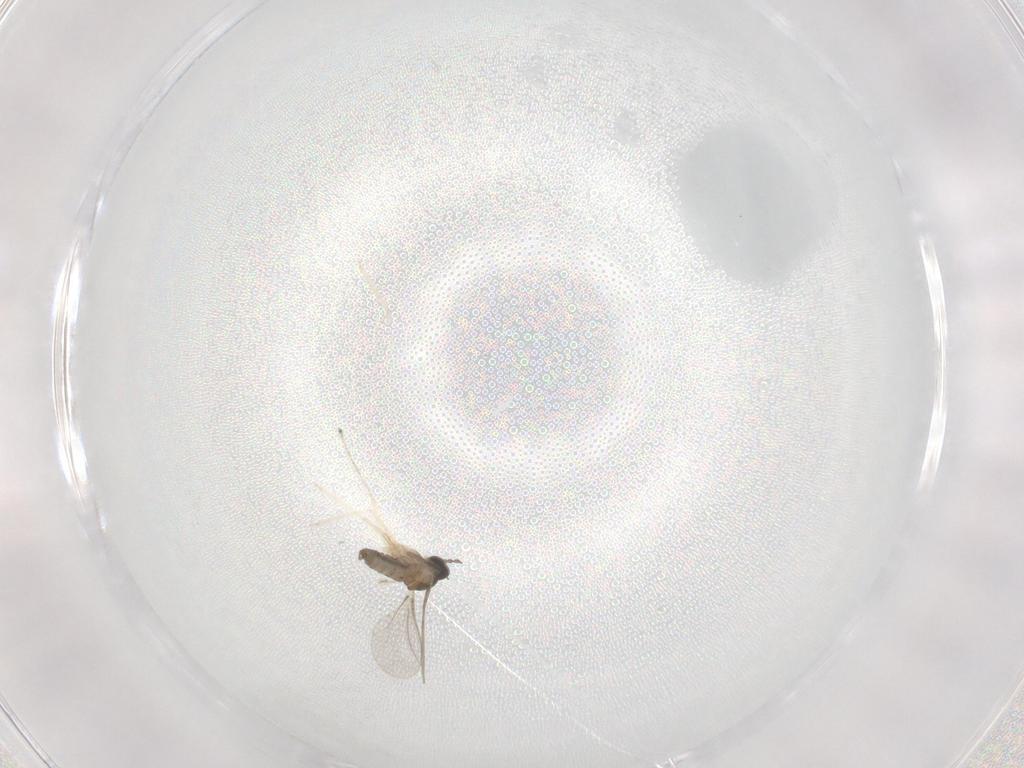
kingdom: Animalia
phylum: Arthropoda
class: Insecta
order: Diptera
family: Cecidomyiidae
